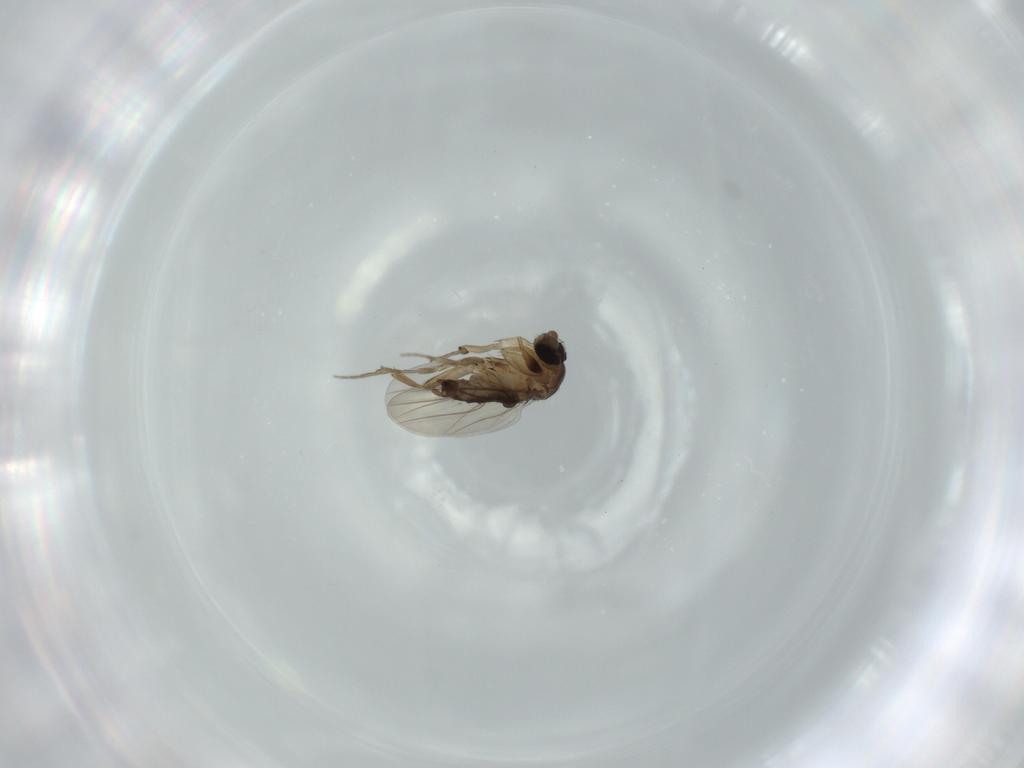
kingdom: Animalia
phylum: Arthropoda
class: Insecta
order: Diptera
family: Phoridae
